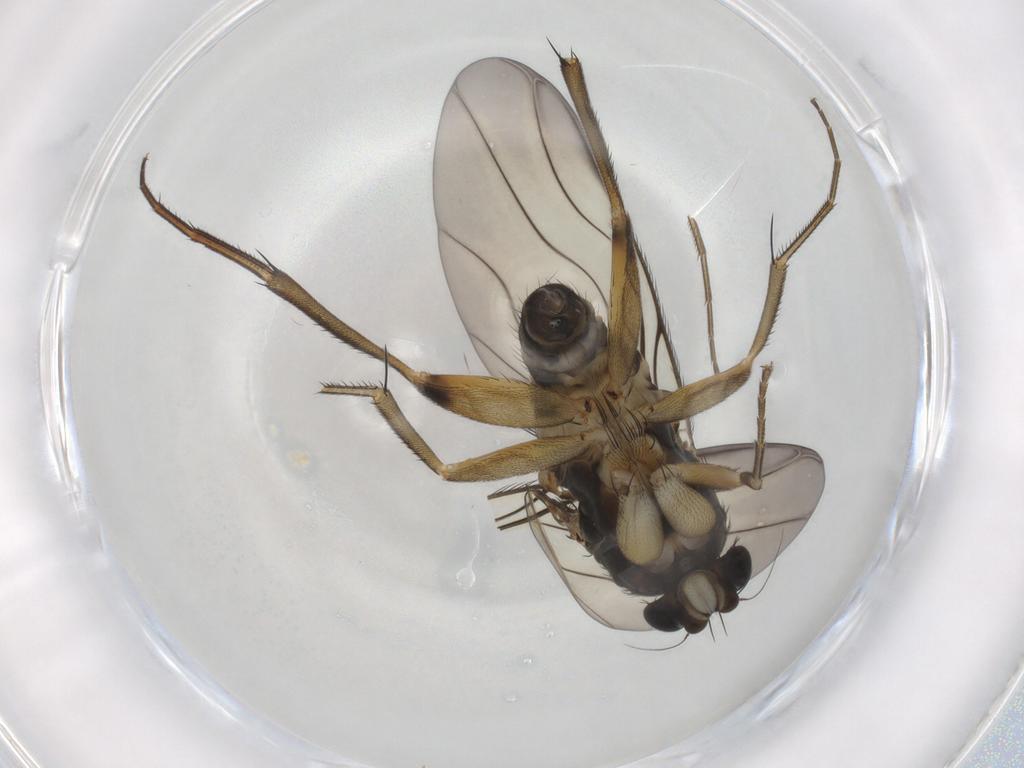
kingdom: Animalia
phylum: Arthropoda
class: Insecta
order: Diptera
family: Phoridae
